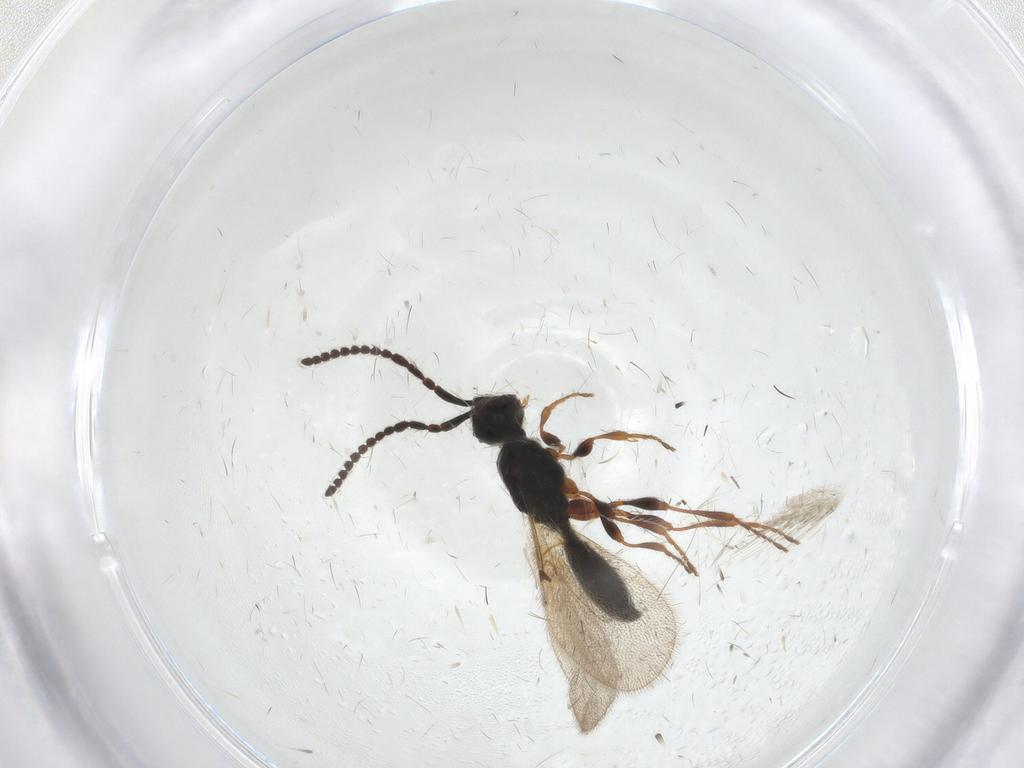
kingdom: Animalia
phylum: Arthropoda
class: Insecta
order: Hymenoptera
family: Diapriidae
